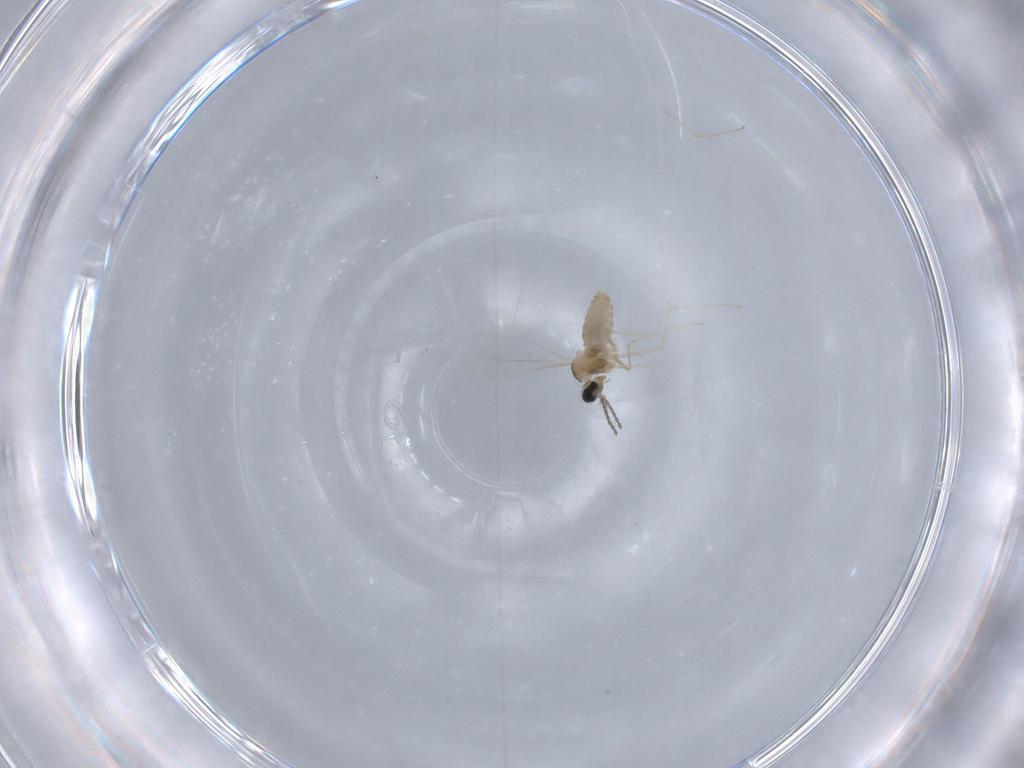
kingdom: Animalia
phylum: Arthropoda
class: Insecta
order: Diptera
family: Cecidomyiidae
